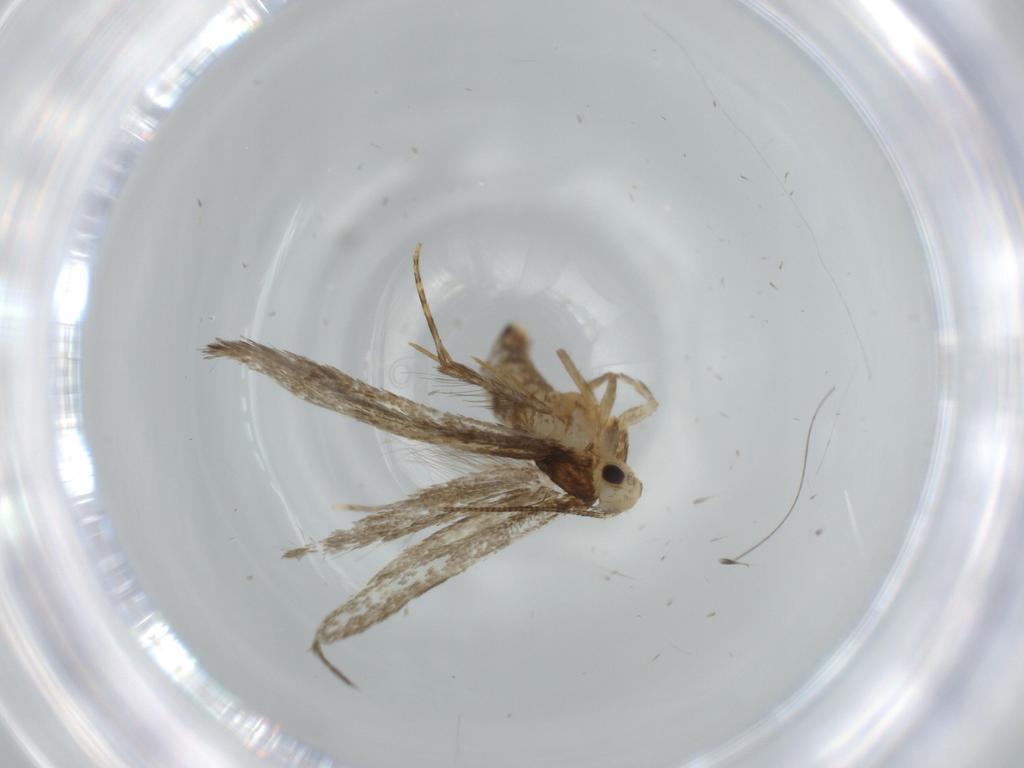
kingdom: Animalia
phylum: Arthropoda
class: Insecta
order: Lepidoptera
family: Tineidae
